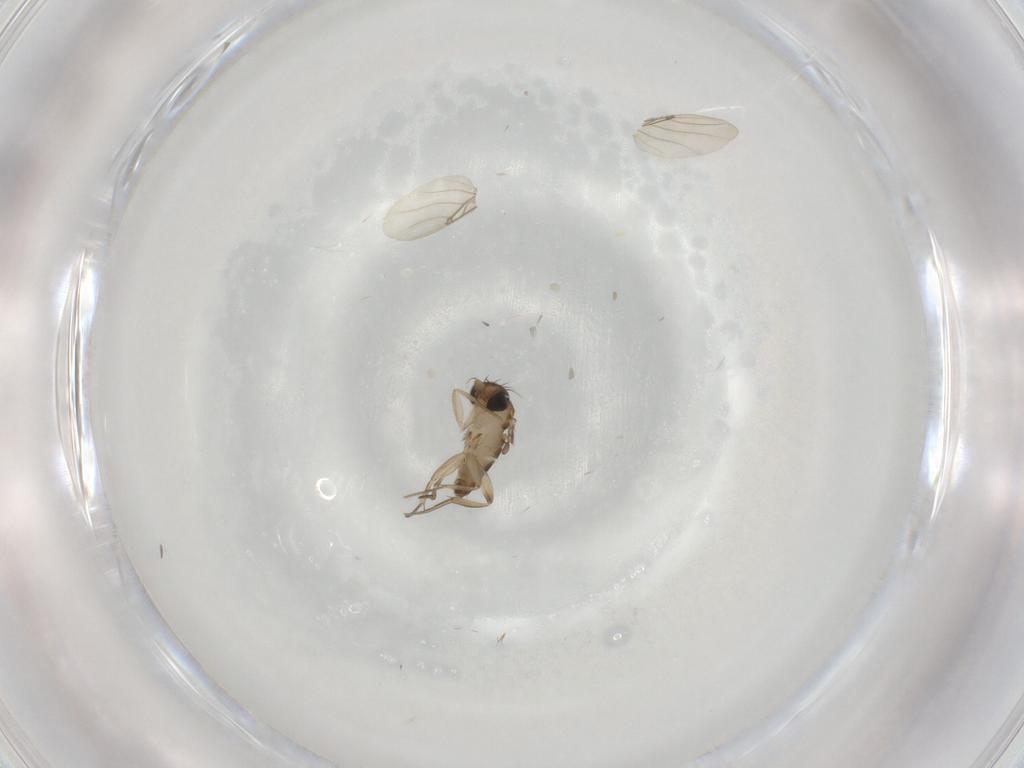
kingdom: Animalia
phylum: Arthropoda
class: Insecta
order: Diptera
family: Phoridae
